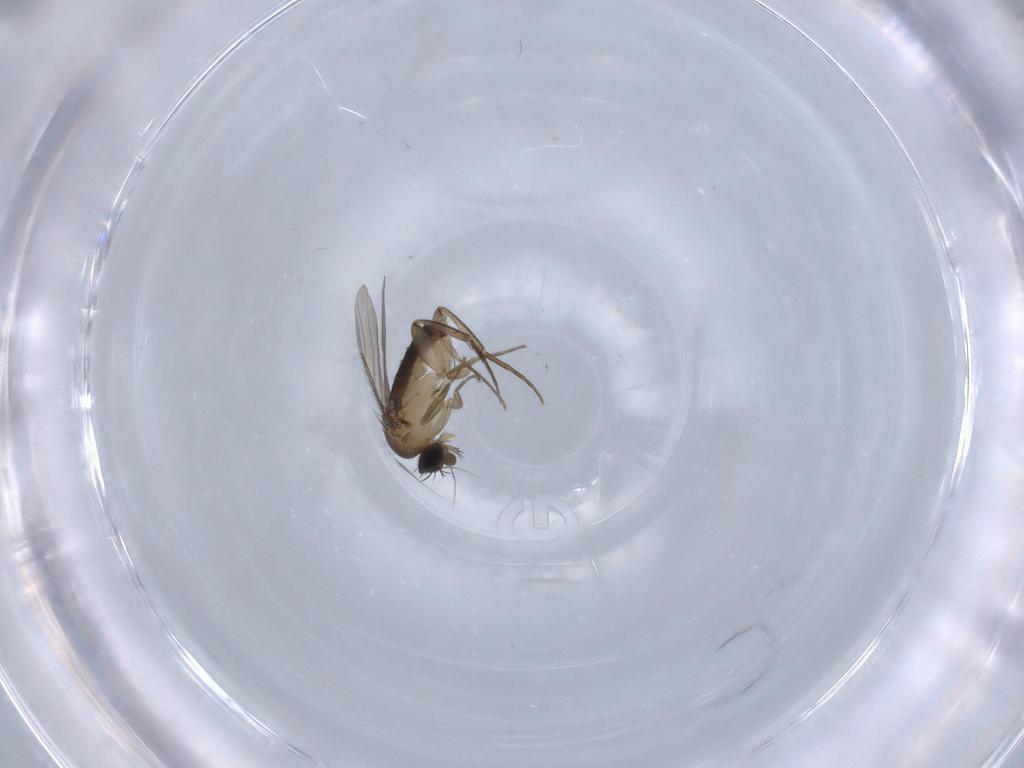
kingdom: Animalia
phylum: Arthropoda
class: Insecta
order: Diptera
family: Phoridae
